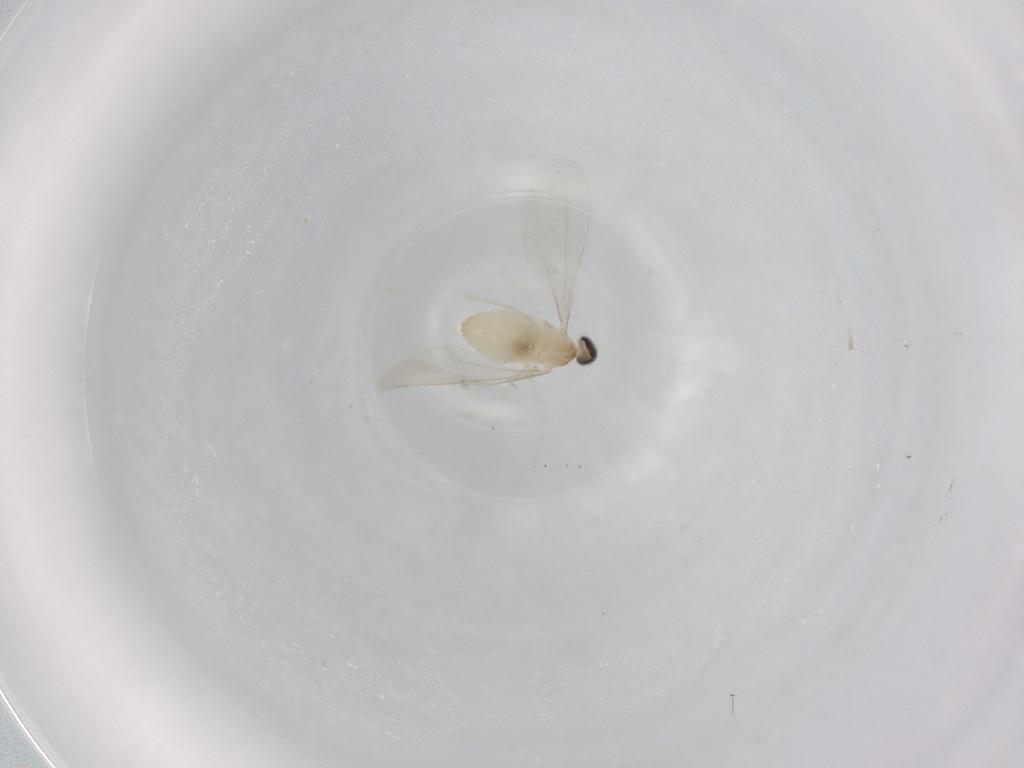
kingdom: Animalia
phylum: Arthropoda
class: Insecta
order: Diptera
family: Cecidomyiidae
